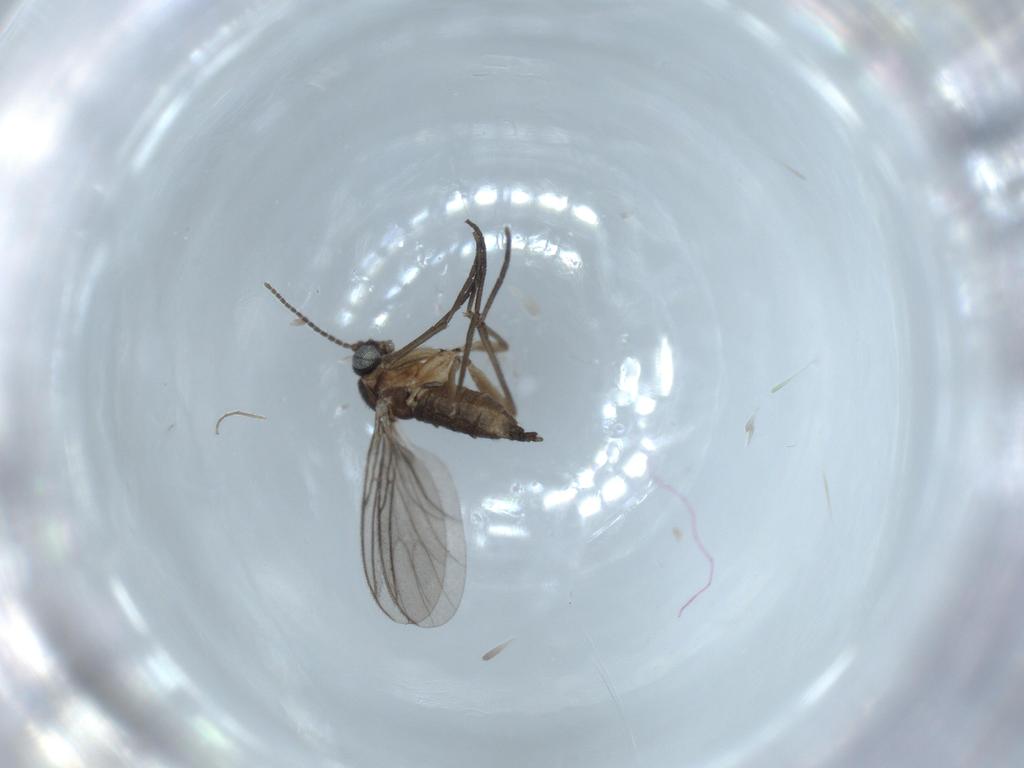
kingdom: Animalia
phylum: Arthropoda
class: Insecta
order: Diptera
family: Sciaridae
